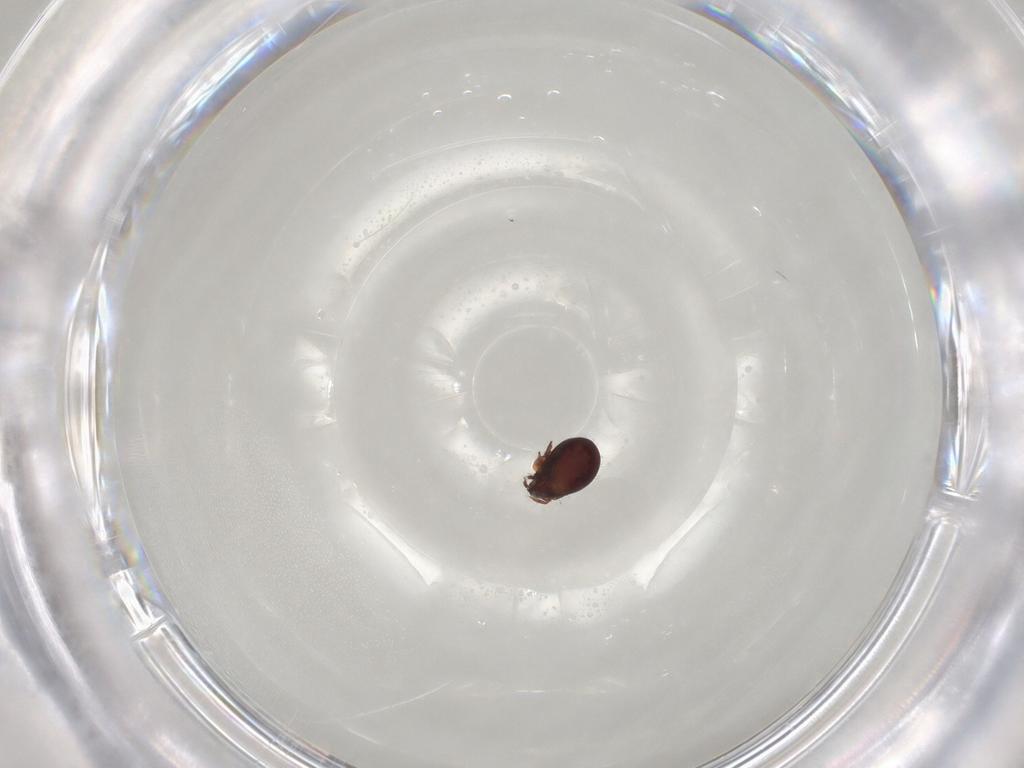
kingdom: Animalia
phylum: Arthropoda
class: Arachnida
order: Sarcoptiformes
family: Humerobatidae
